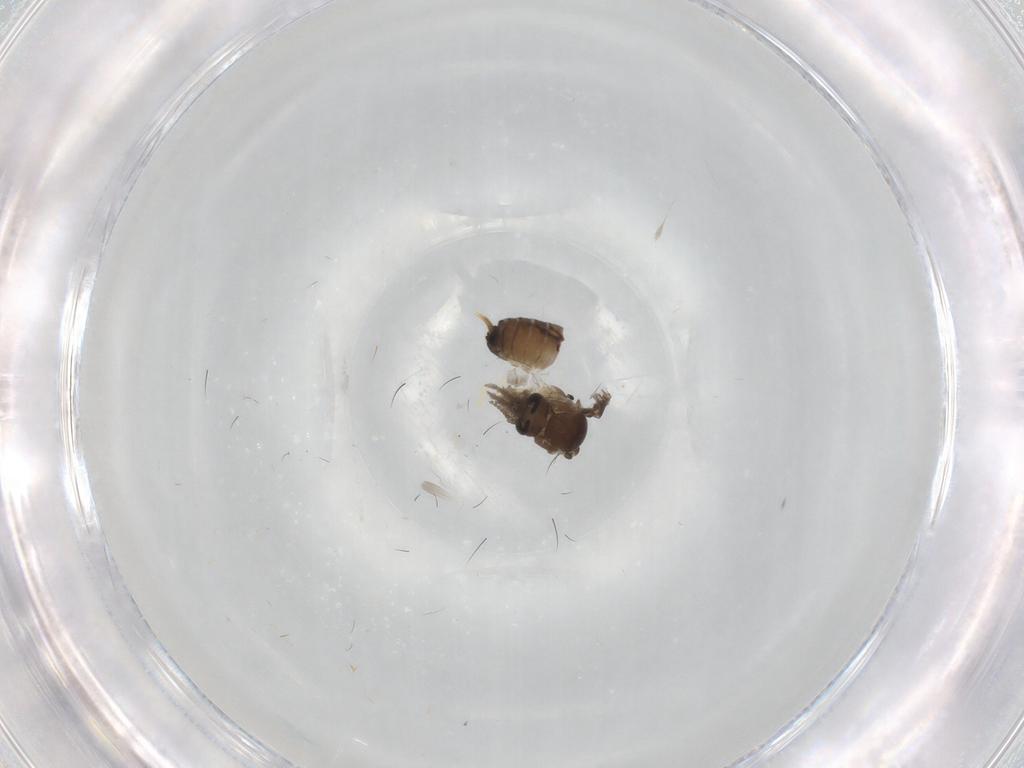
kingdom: Animalia
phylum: Arthropoda
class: Insecta
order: Diptera
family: Psychodidae
